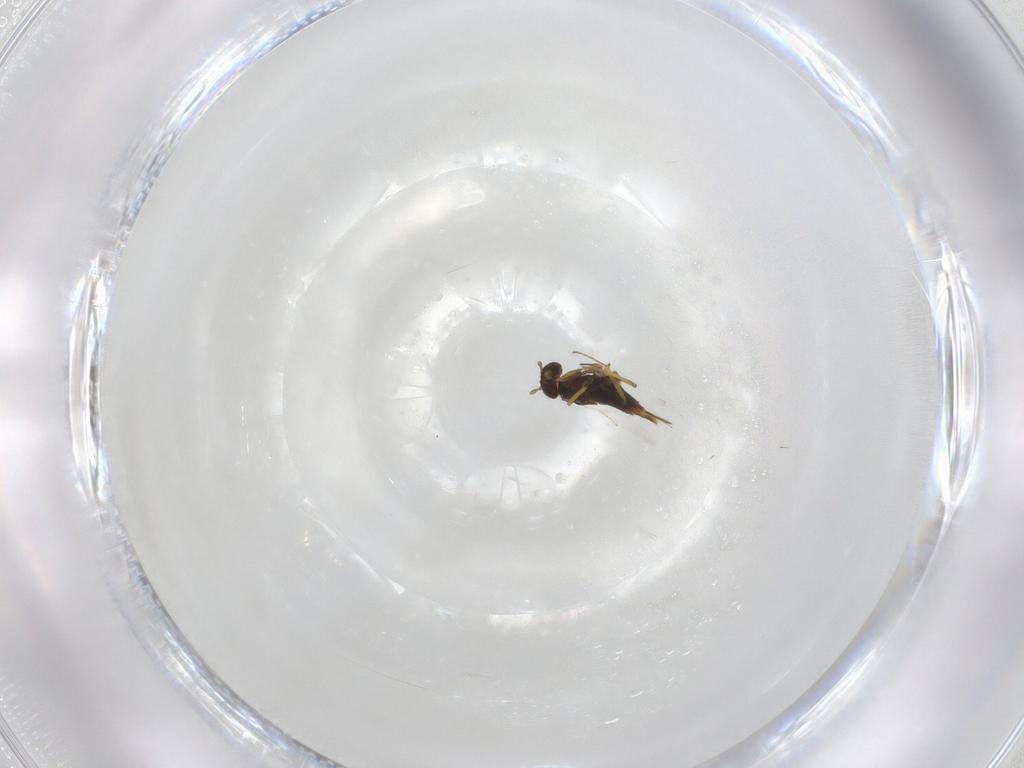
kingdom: Animalia
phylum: Arthropoda
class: Insecta
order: Hymenoptera
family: Aphelinidae
